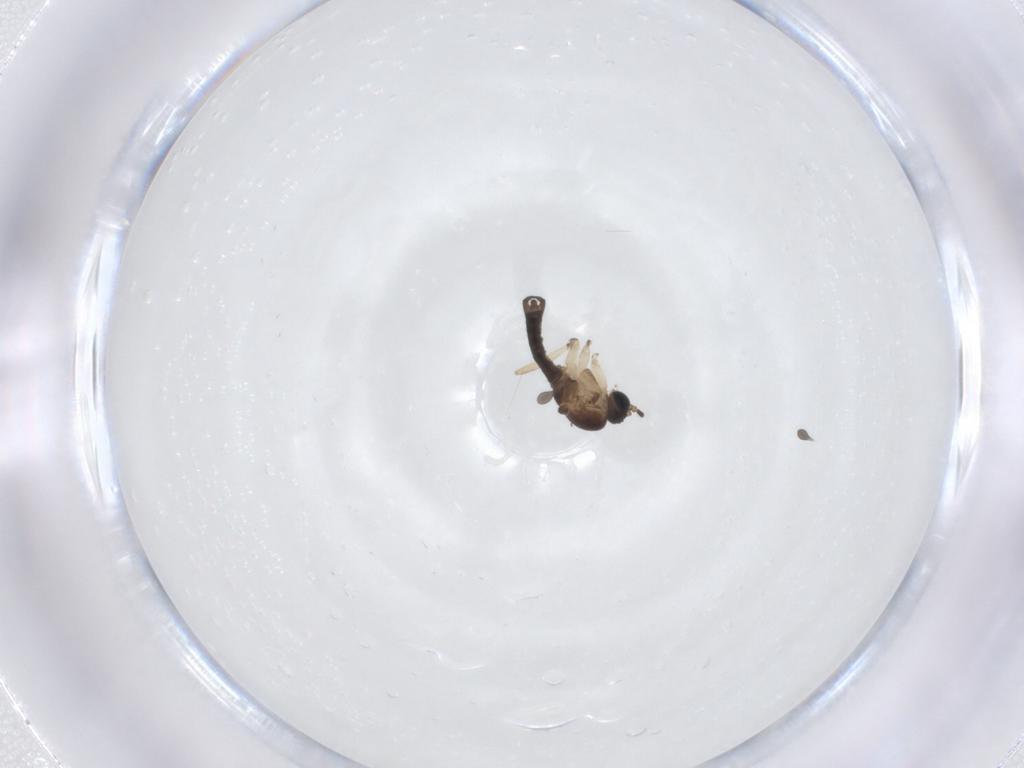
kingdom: Animalia
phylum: Arthropoda
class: Insecta
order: Diptera
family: Sciaridae
